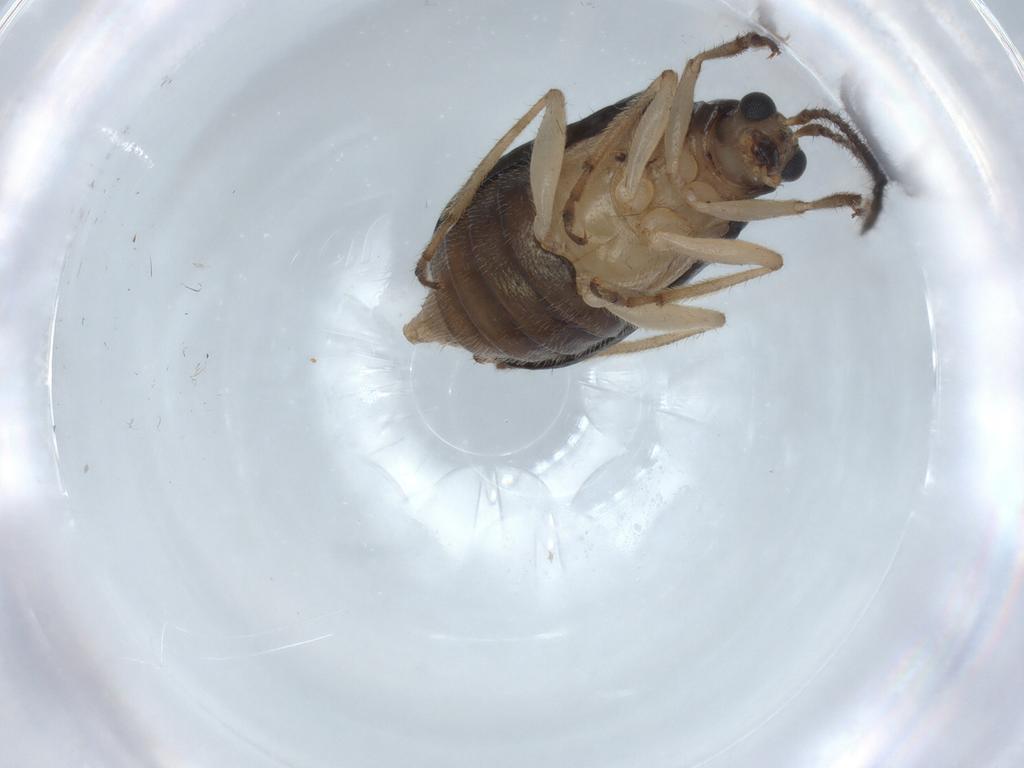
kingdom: Animalia
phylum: Arthropoda
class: Insecta
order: Coleoptera
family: Chrysomelidae
